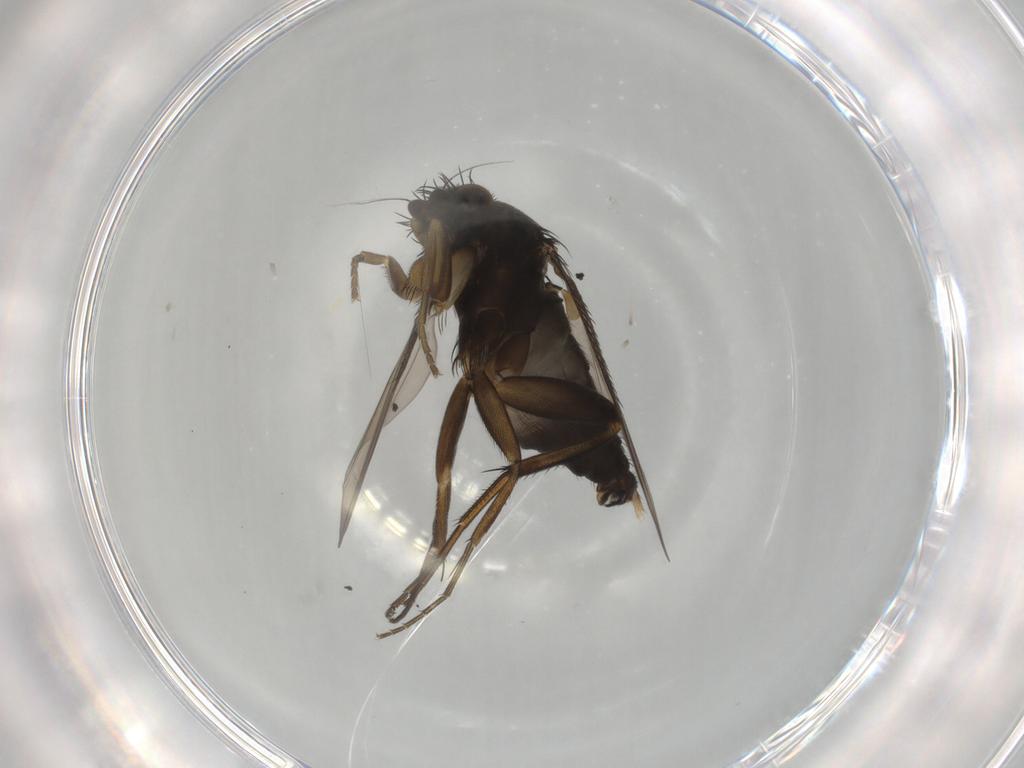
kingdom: Animalia
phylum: Arthropoda
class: Insecta
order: Diptera
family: Phoridae
